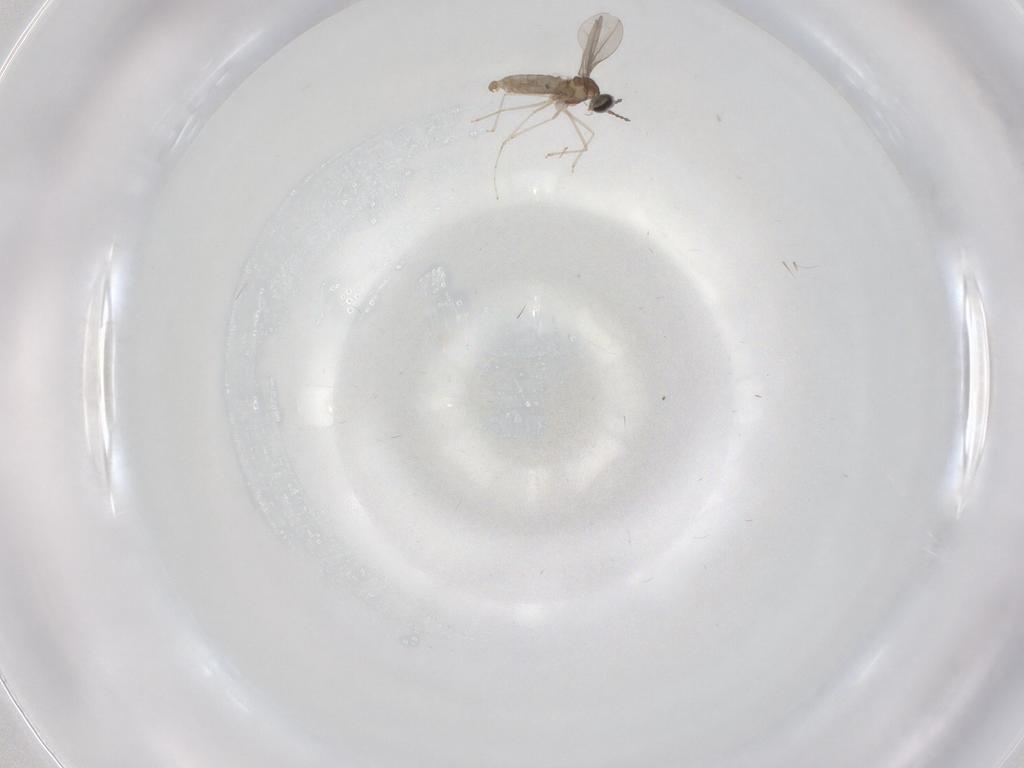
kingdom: Animalia
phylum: Arthropoda
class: Insecta
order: Diptera
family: Cecidomyiidae
